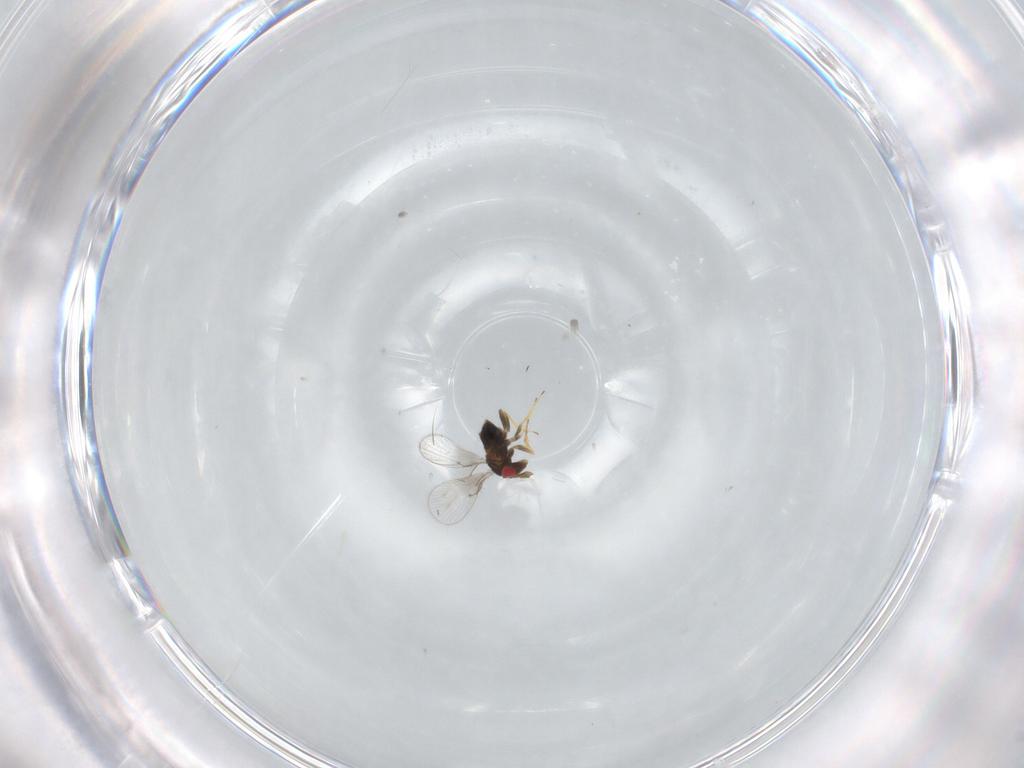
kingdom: Animalia
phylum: Arthropoda
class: Insecta
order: Hymenoptera
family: Trichogrammatidae
